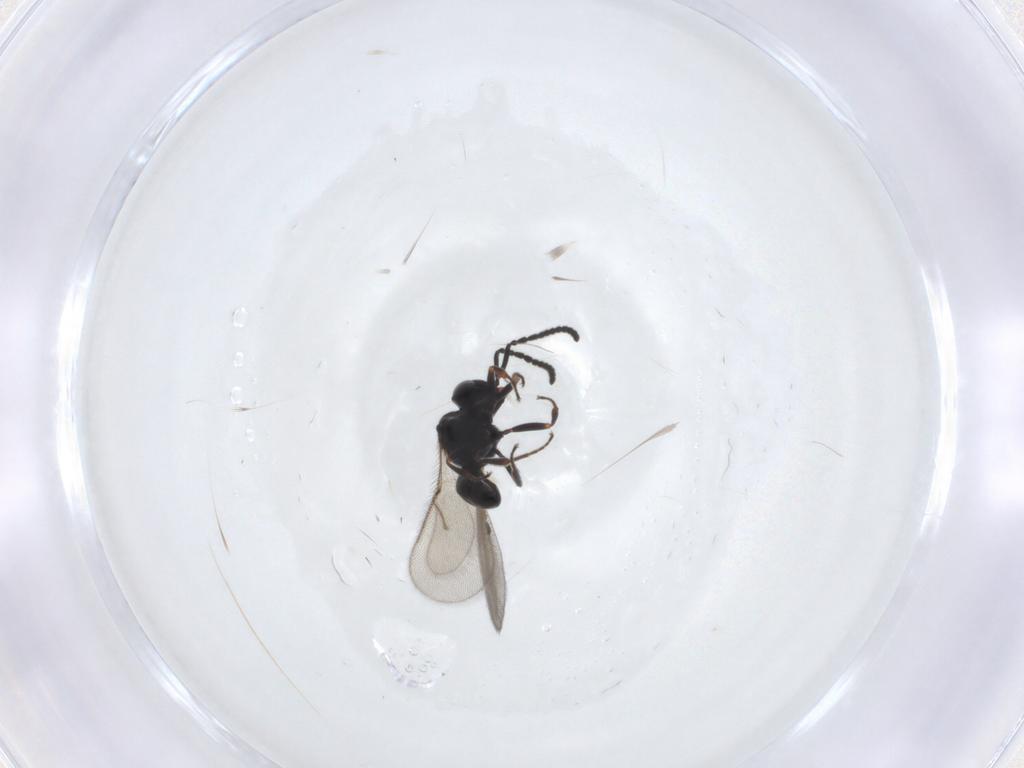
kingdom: Animalia
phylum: Arthropoda
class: Insecta
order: Hymenoptera
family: Scelionidae
